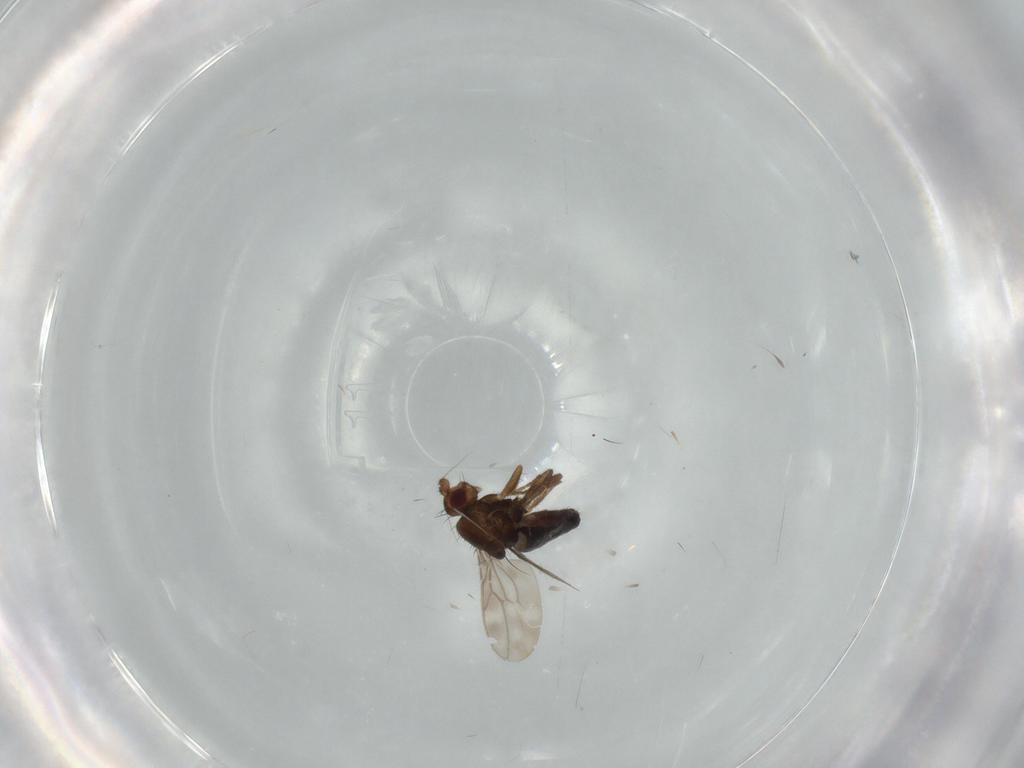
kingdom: Animalia
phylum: Arthropoda
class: Insecta
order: Diptera
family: Sphaeroceridae
